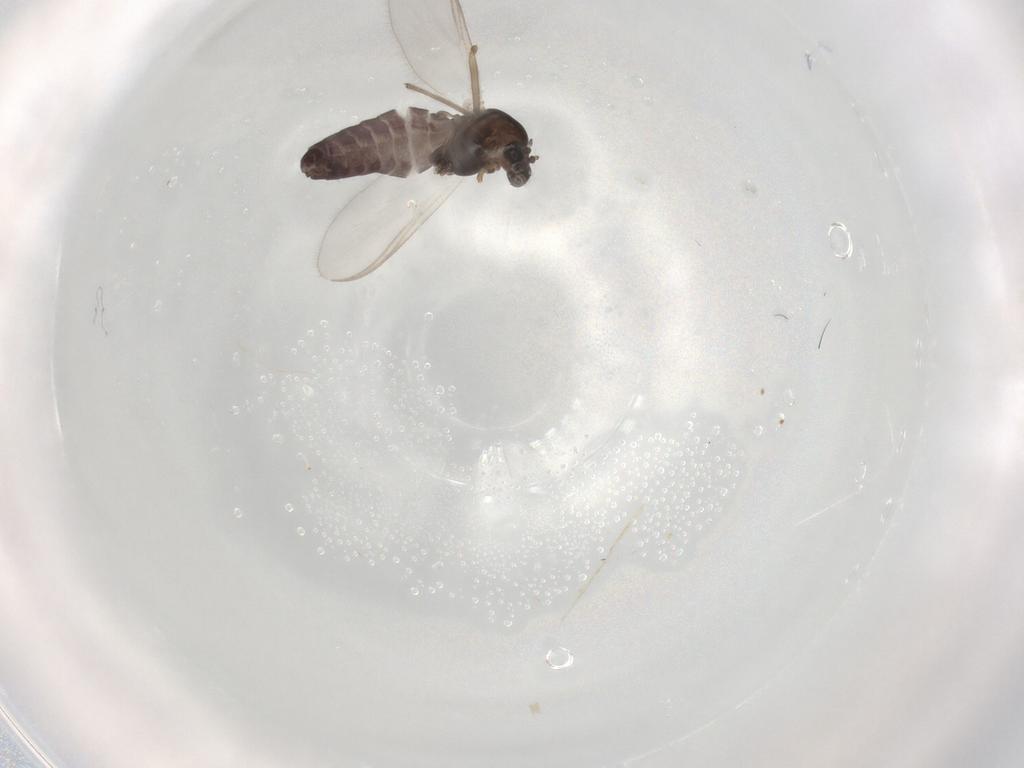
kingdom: Animalia
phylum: Arthropoda
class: Insecta
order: Diptera
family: Chironomidae
